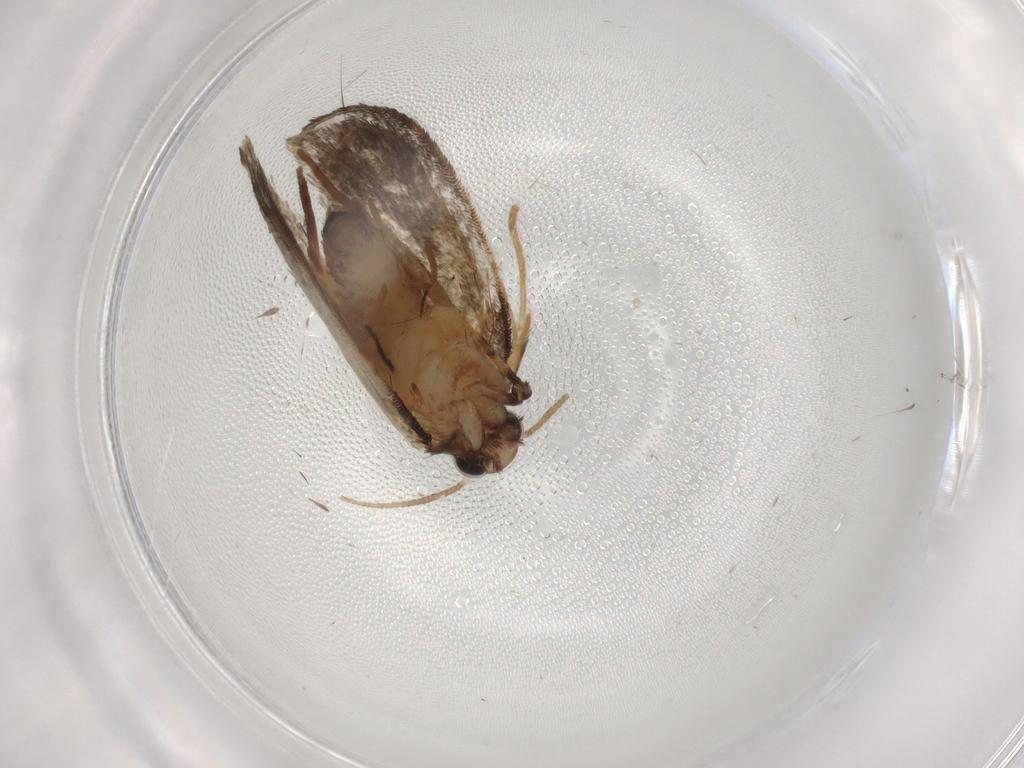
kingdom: Animalia
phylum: Arthropoda
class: Insecta
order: Lepidoptera
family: Psychidae
